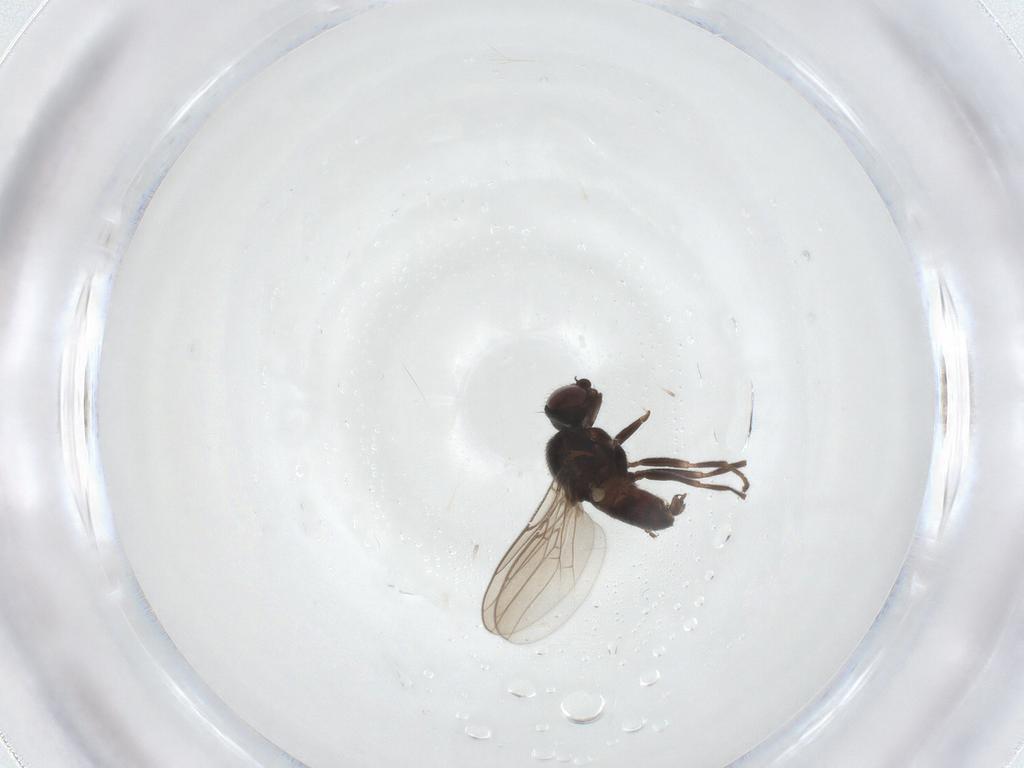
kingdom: Animalia
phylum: Arthropoda
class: Insecta
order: Diptera
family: Chloropidae
